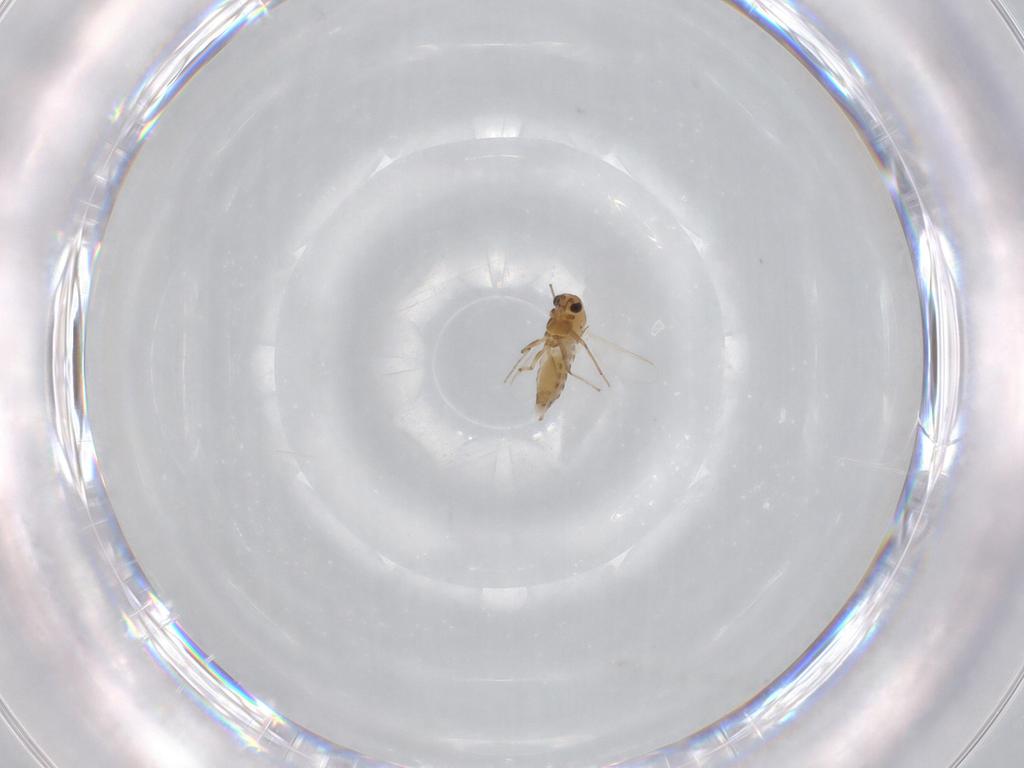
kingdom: Animalia
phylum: Arthropoda
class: Insecta
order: Diptera
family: Chironomidae
